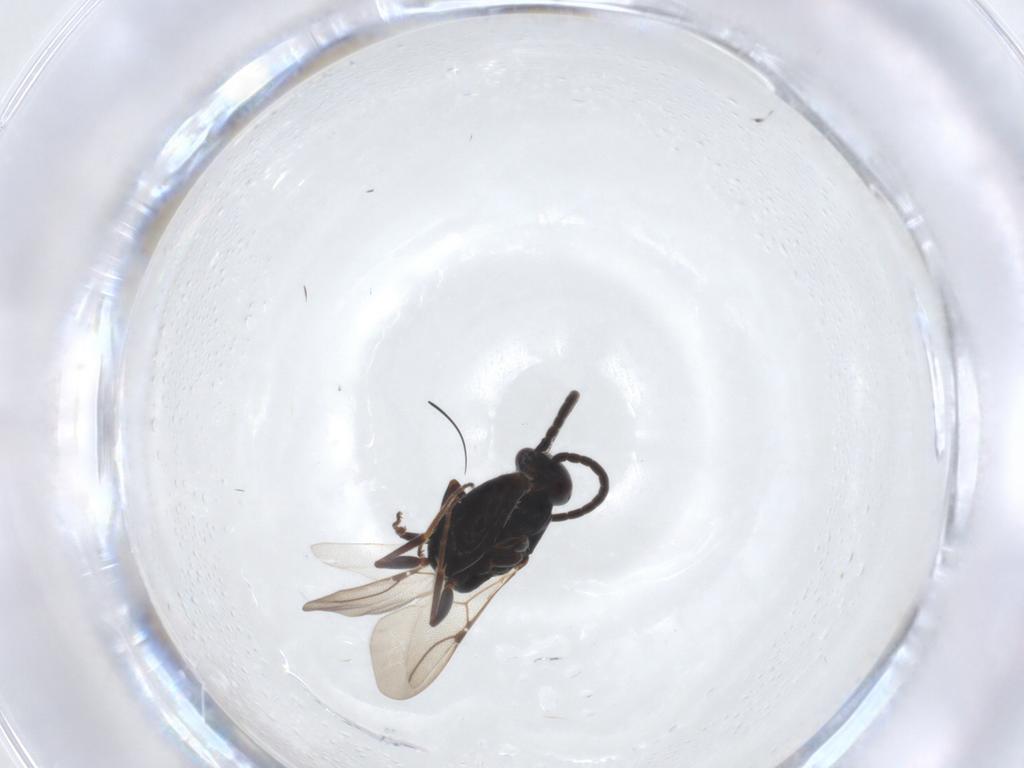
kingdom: Animalia
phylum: Arthropoda
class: Insecta
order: Hymenoptera
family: Bethylidae
